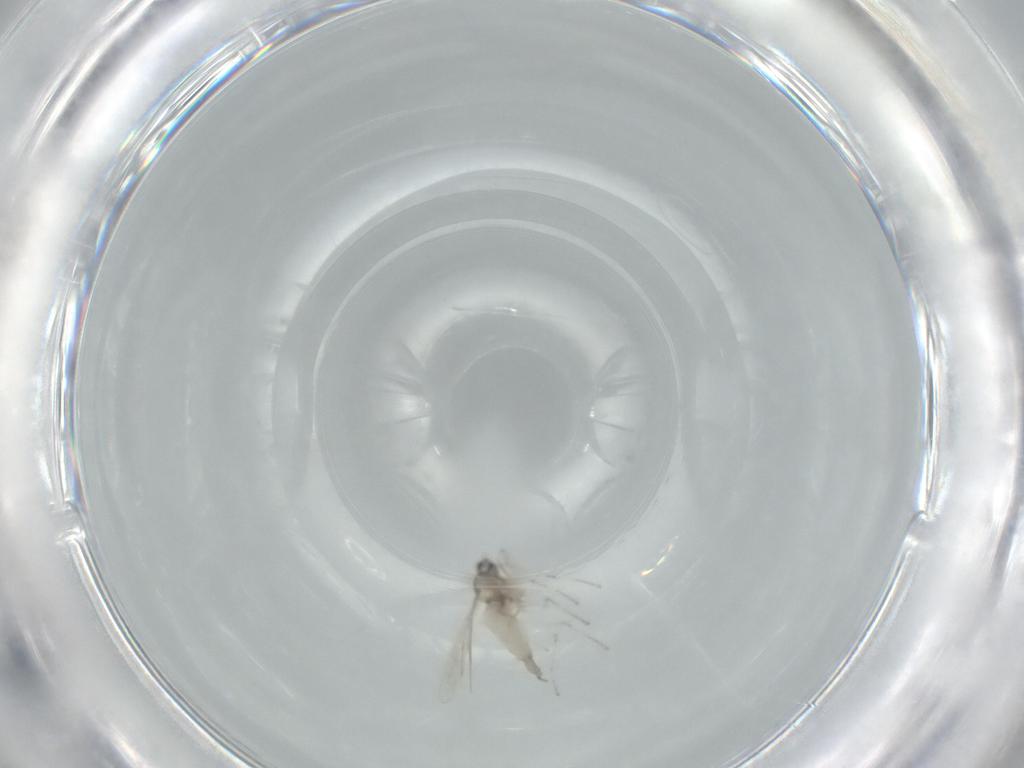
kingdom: Animalia
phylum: Arthropoda
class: Insecta
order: Diptera
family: Cecidomyiidae
